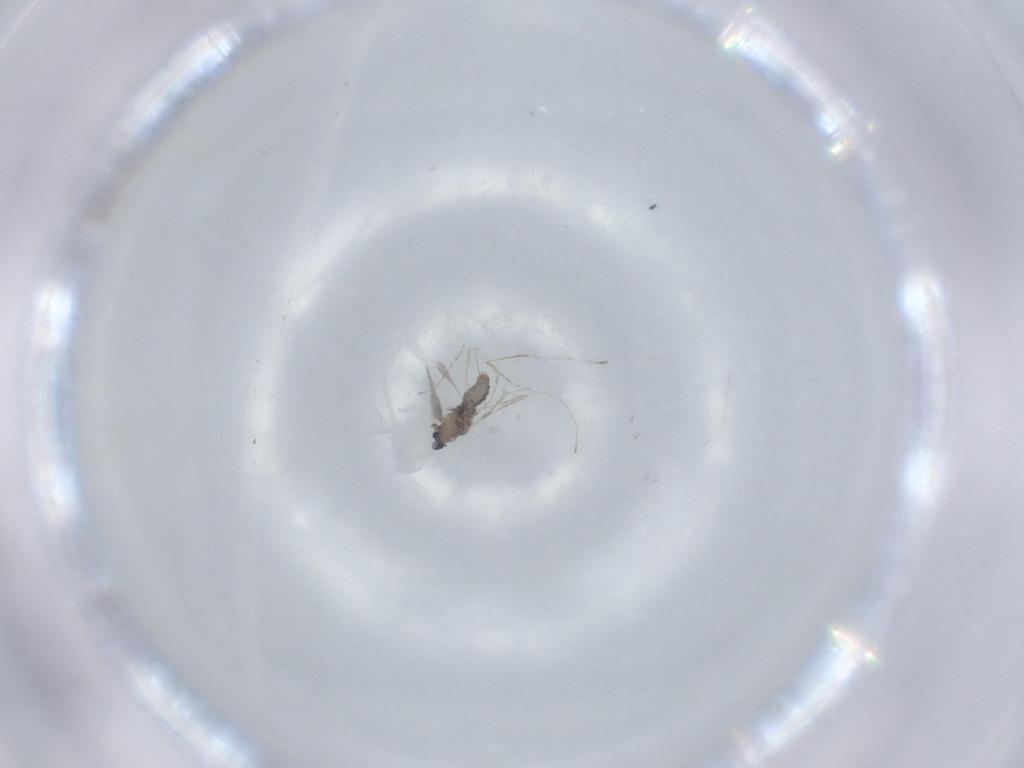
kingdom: Animalia
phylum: Arthropoda
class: Insecta
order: Diptera
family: Cecidomyiidae
